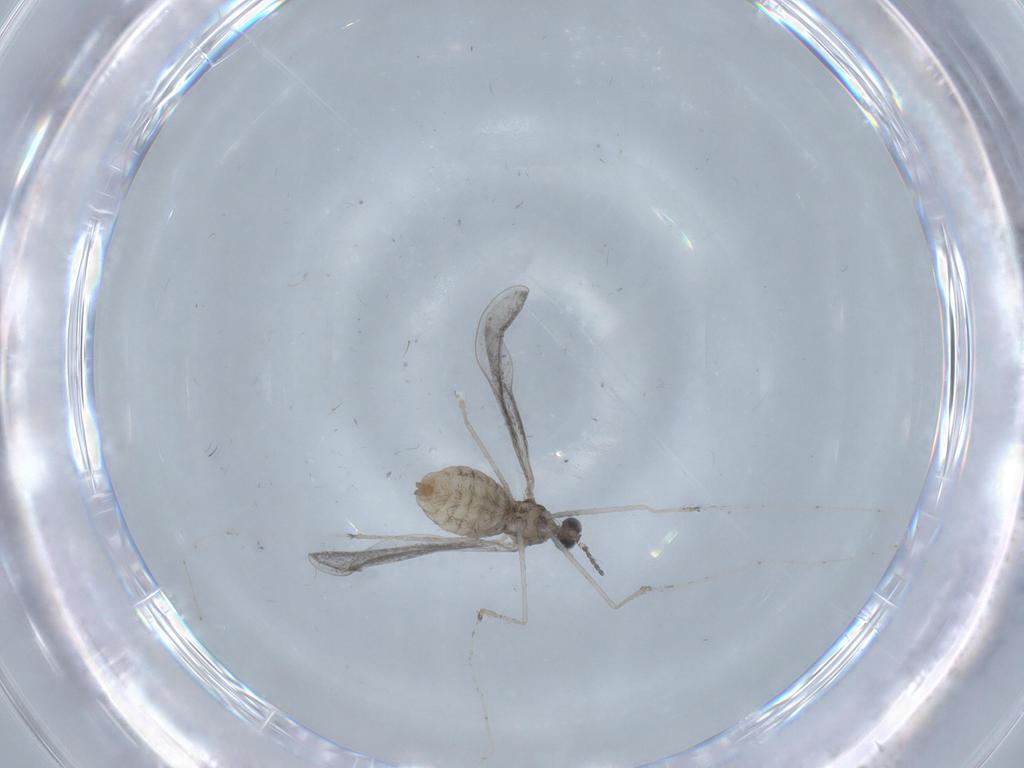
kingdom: Animalia
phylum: Arthropoda
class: Insecta
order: Diptera
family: Cecidomyiidae
